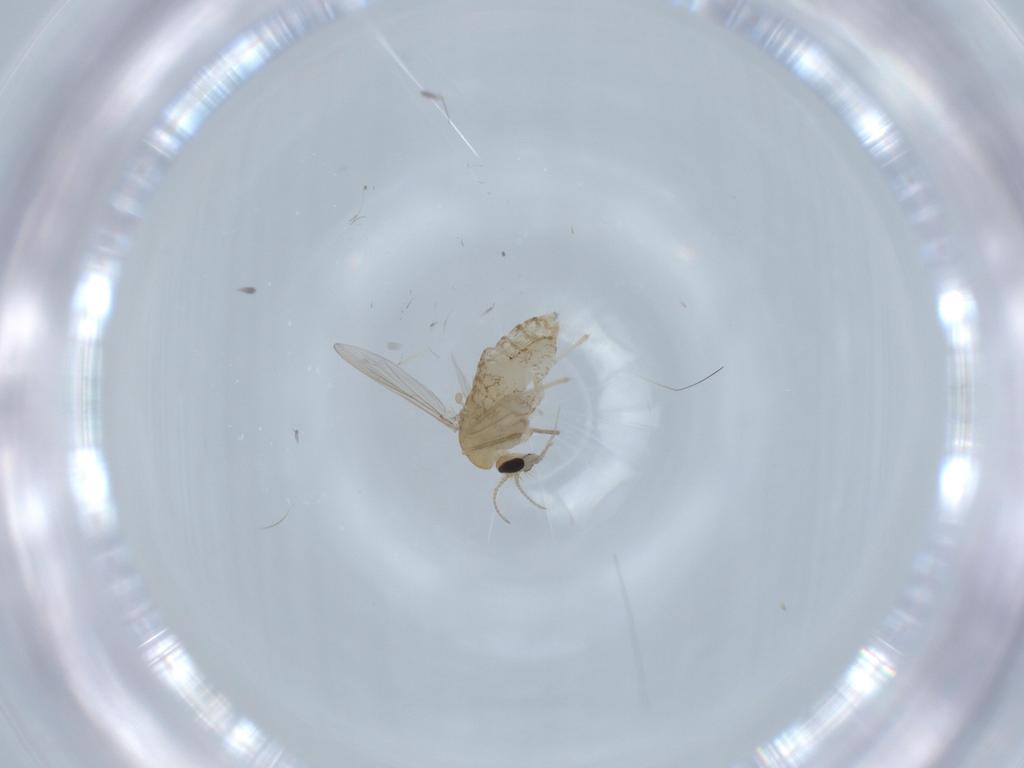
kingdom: Animalia
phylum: Arthropoda
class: Insecta
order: Diptera
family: Chironomidae
